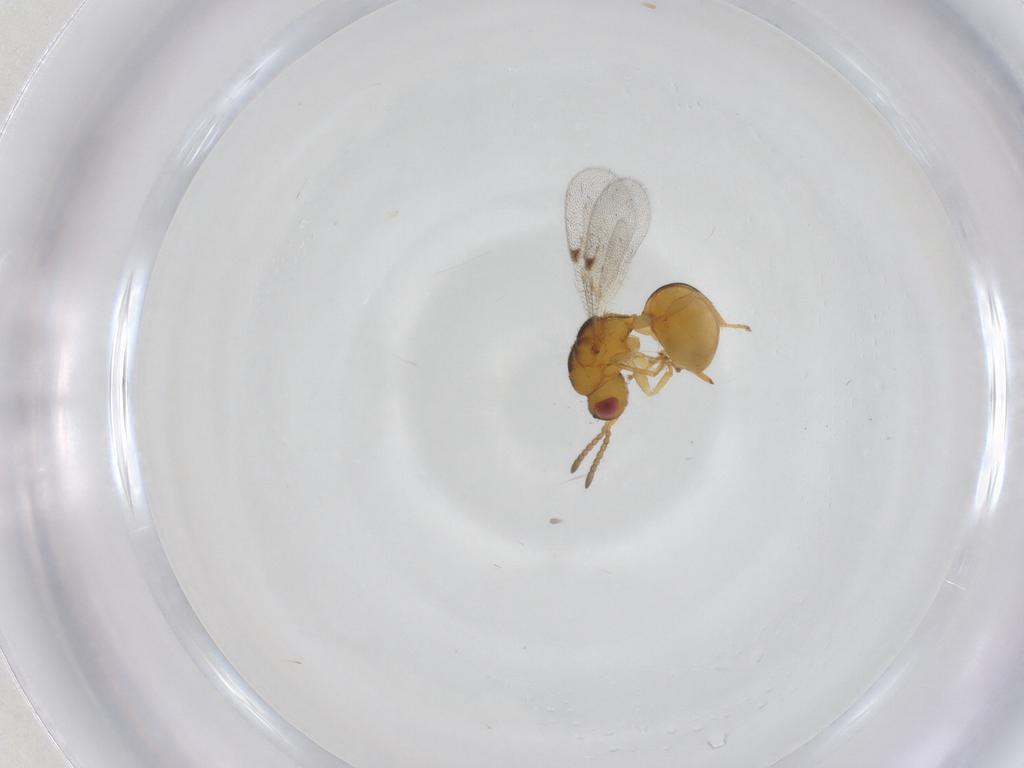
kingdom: Animalia
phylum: Arthropoda
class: Insecta
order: Hymenoptera
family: Eurytomidae
